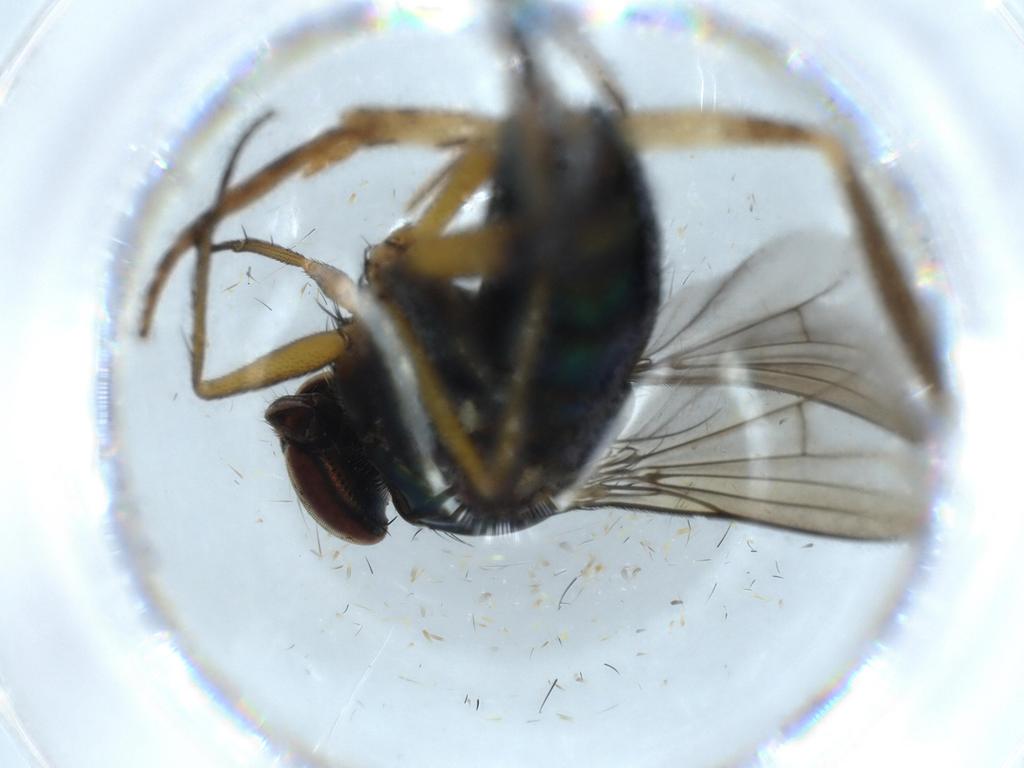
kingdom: Animalia
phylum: Arthropoda
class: Insecta
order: Diptera
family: Dolichopodidae
